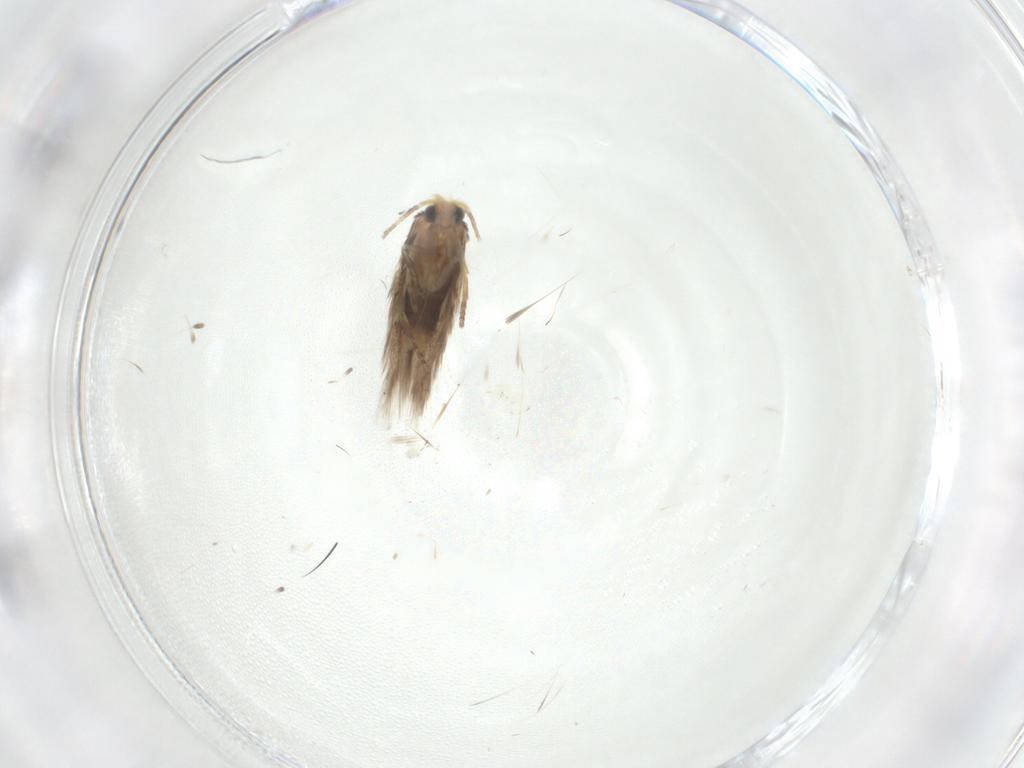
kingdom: Animalia
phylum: Arthropoda
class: Insecta
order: Lepidoptera
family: Nepticulidae
